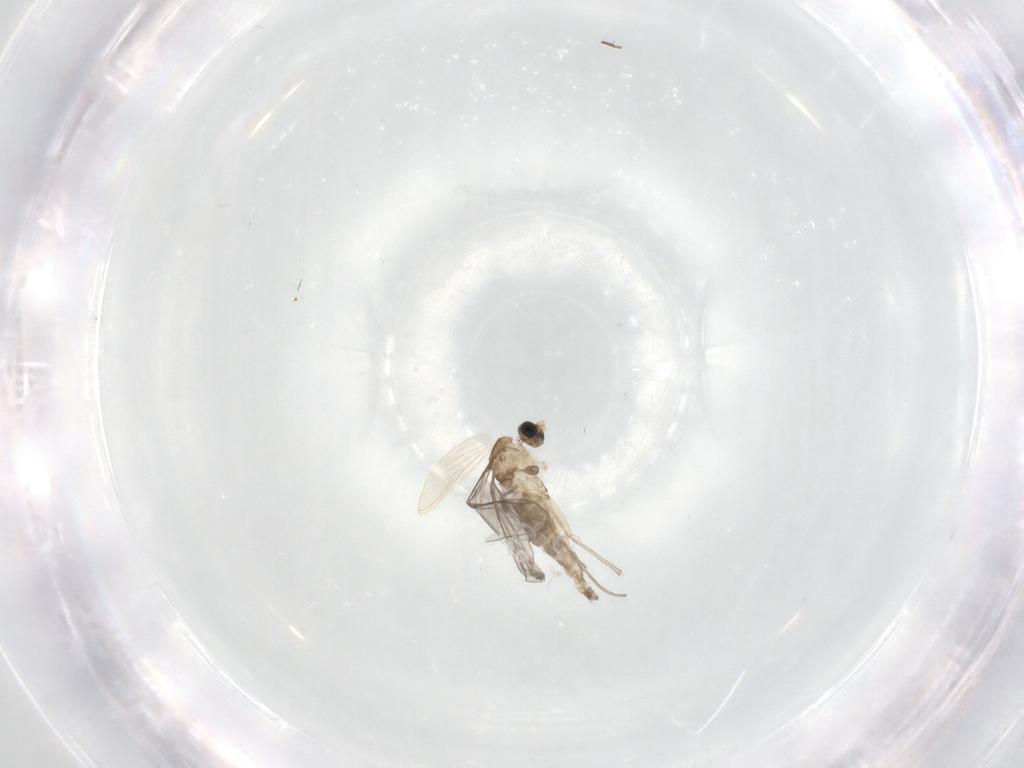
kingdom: Animalia
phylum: Arthropoda
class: Insecta
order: Diptera
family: Sciaridae
